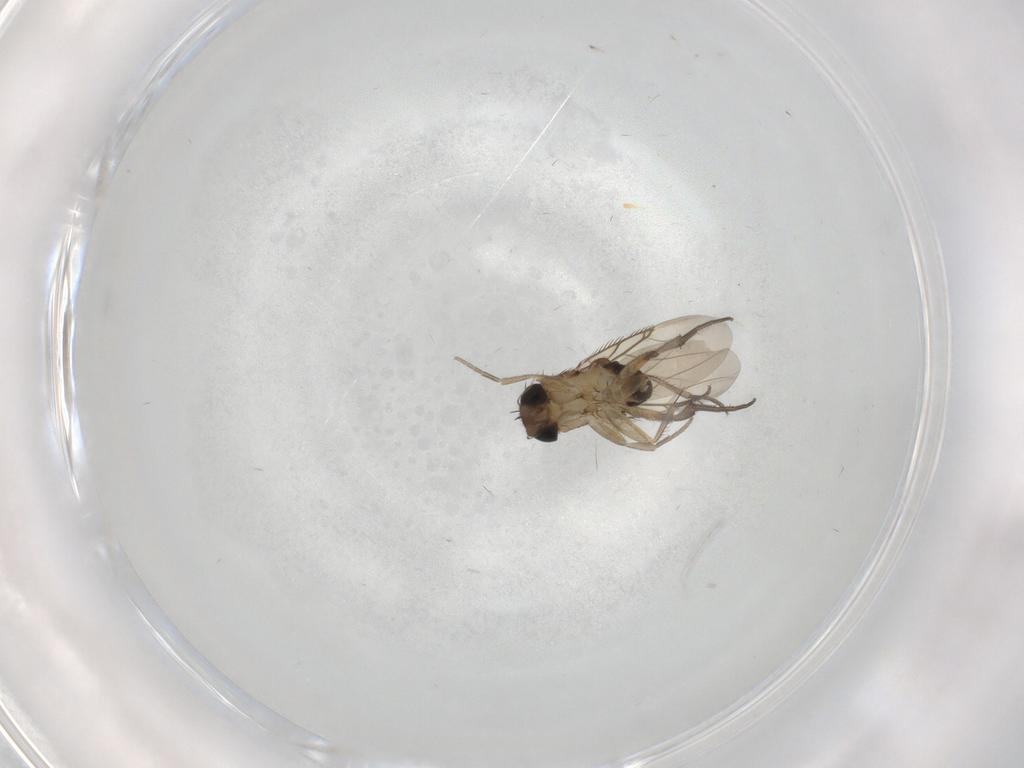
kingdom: Animalia
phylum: Arthropoda
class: Insecta
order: Diptera
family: Phoridae
